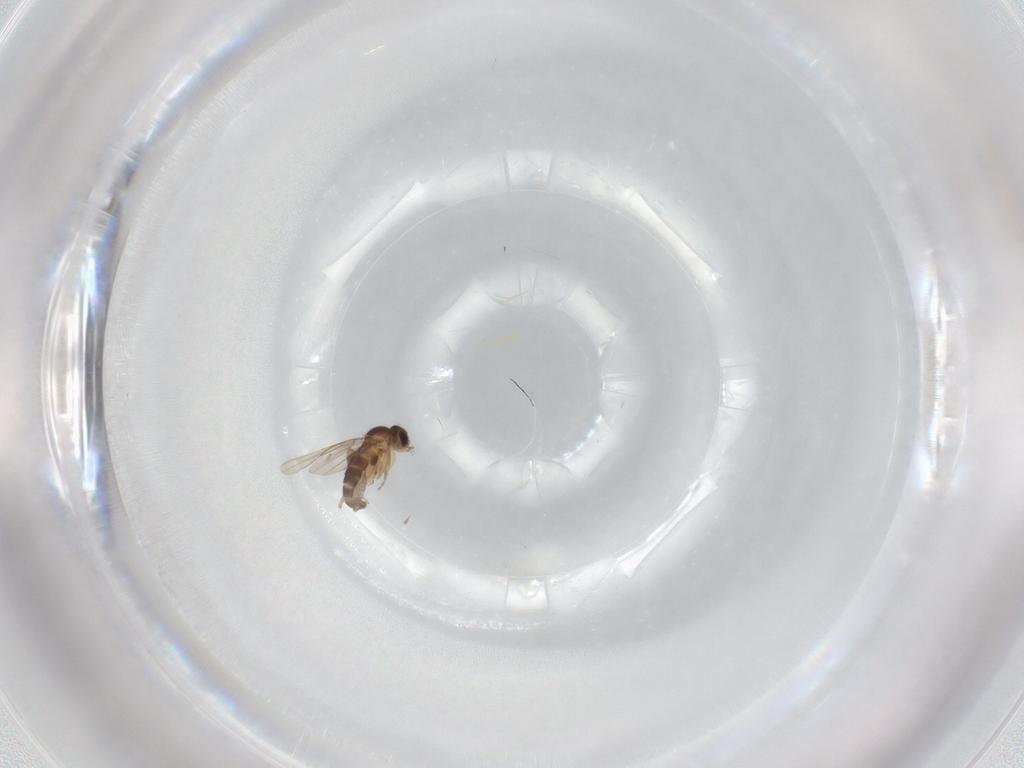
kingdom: Animalia
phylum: Arthropoda
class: Insecta
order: Diptera
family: Phoridae
